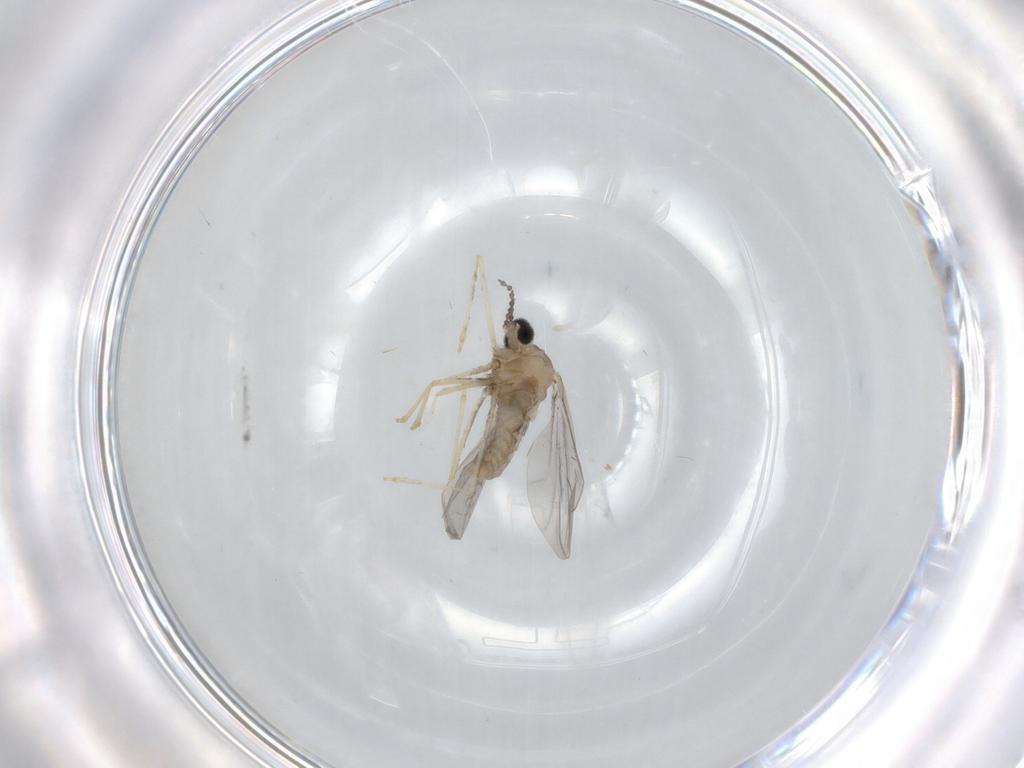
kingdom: Animalia
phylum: Arthropoda
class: Insecta
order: Diptera
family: Cecidomyiidae
